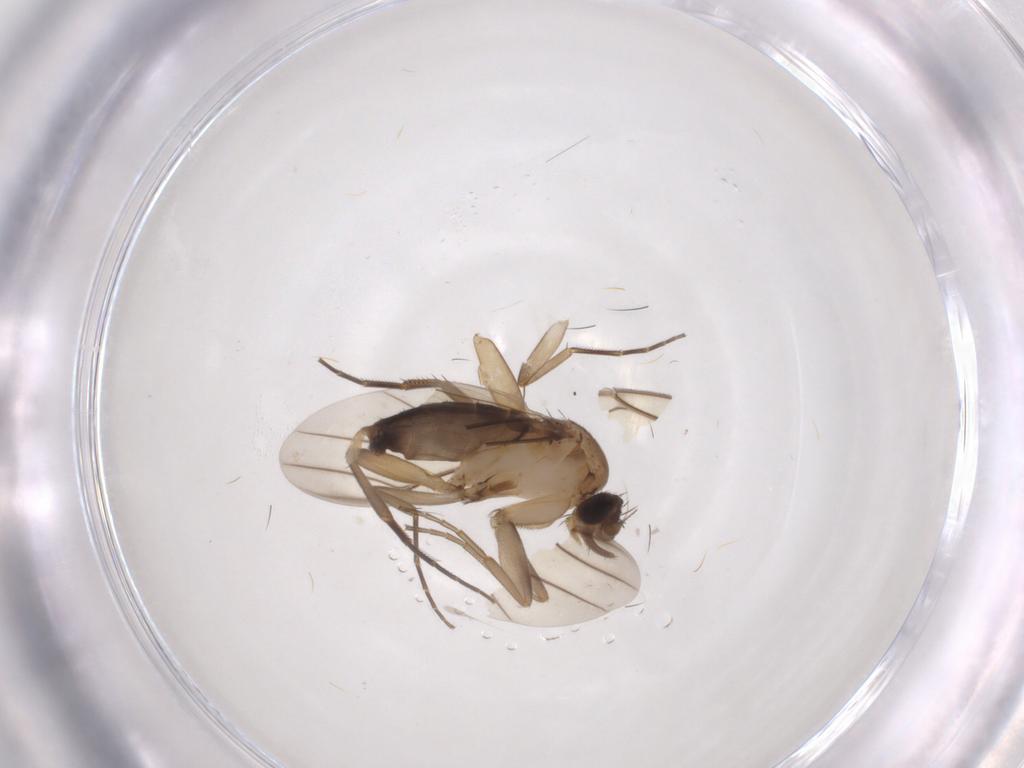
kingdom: Animalia
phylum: Arthropoda
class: Insecta
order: Diptera
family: Phoridae
